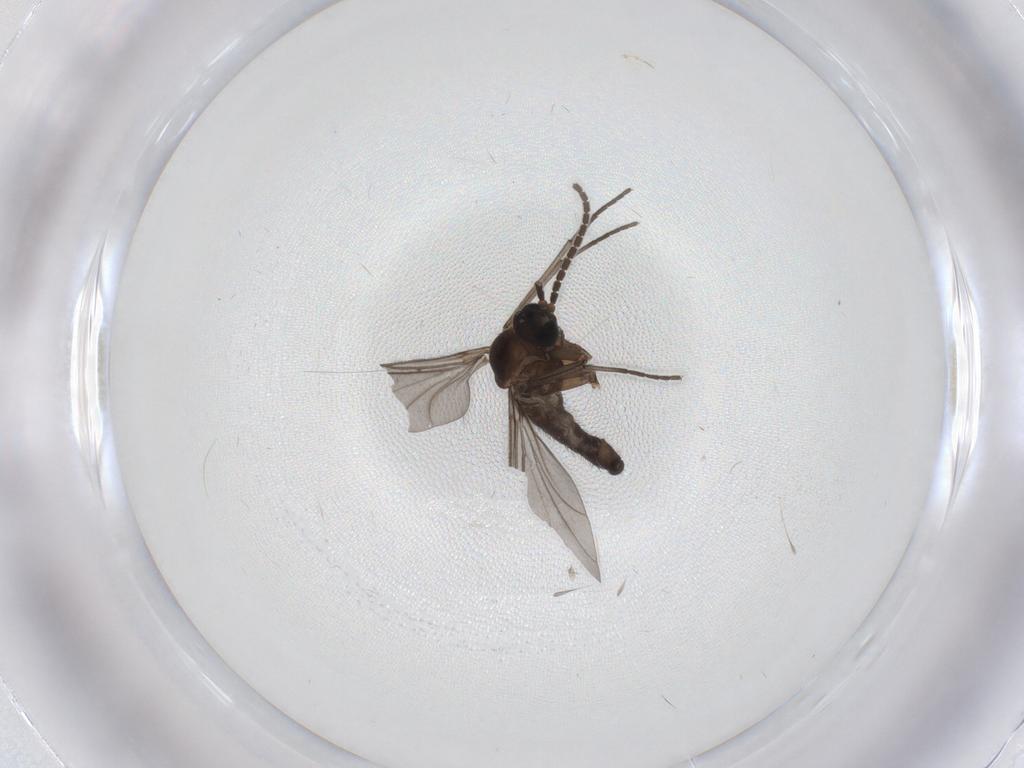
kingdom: Animalia
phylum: Arthropoda
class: Insecta
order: Diptera
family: Sciaridae
